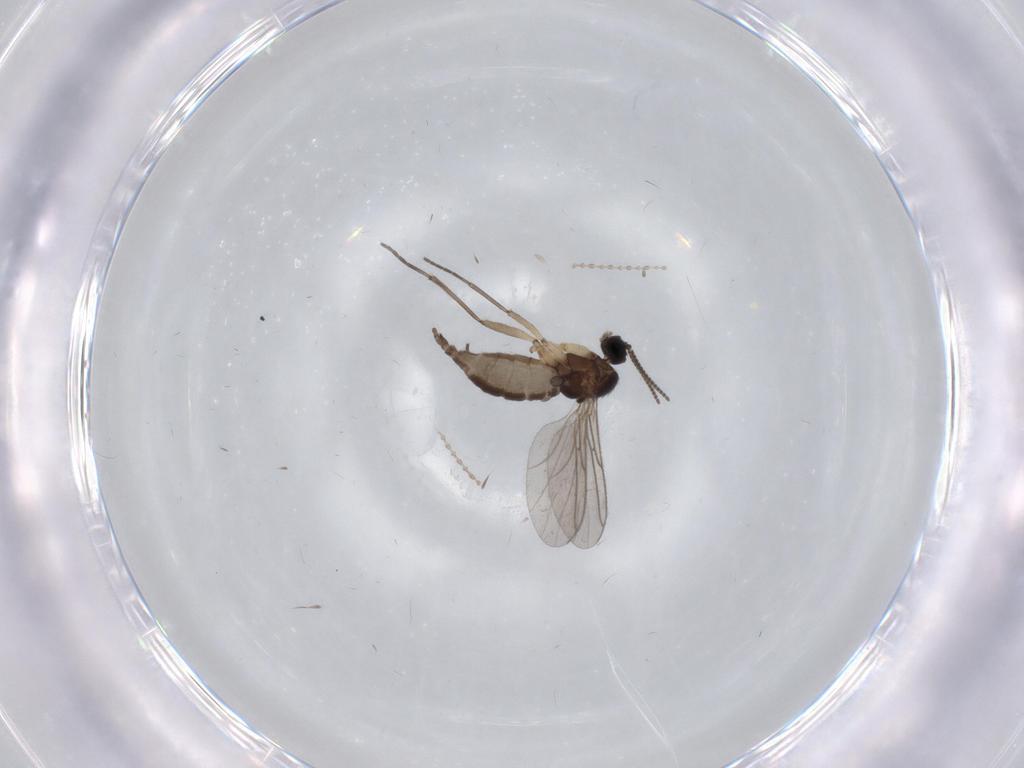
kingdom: Animalia
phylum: Arthropoda
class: Insecta
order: Diptera
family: Sciaridae
